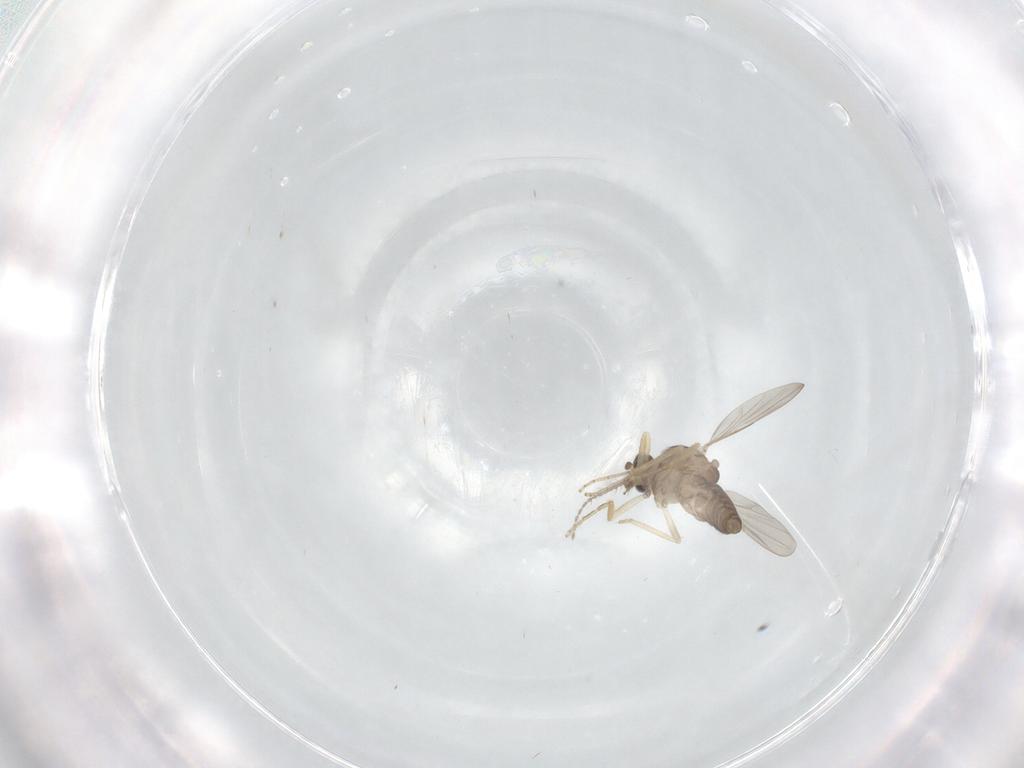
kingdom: Animalia
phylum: Arthropoda
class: Insecta
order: Diptera
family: Ceratopogonidae
